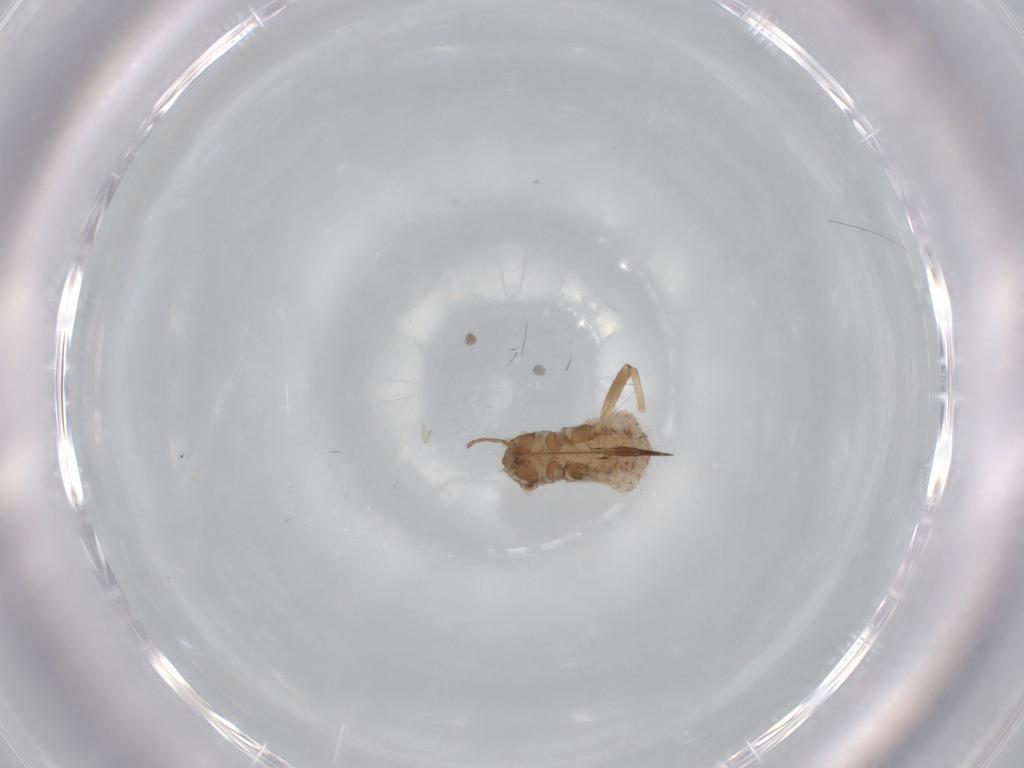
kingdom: Animalia
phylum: Arthropoda
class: Insecta
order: Hemiptera
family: Aphididae
